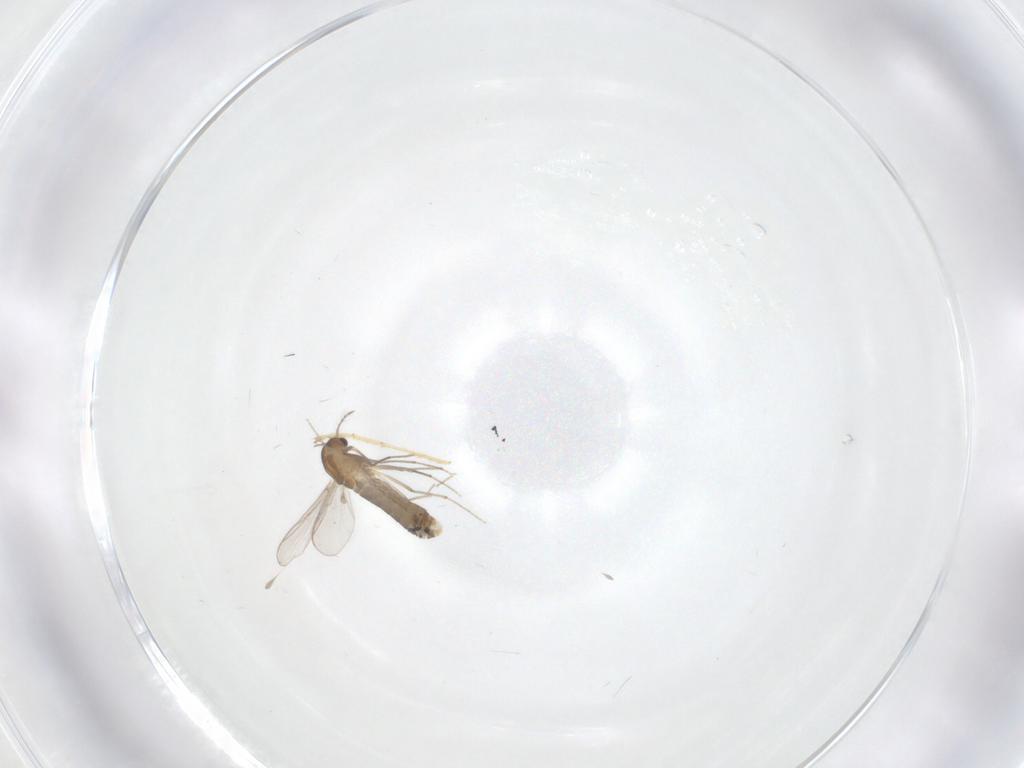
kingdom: Animalia
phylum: Arthropoda
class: Insecta
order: Diptera
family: Chironomidae
